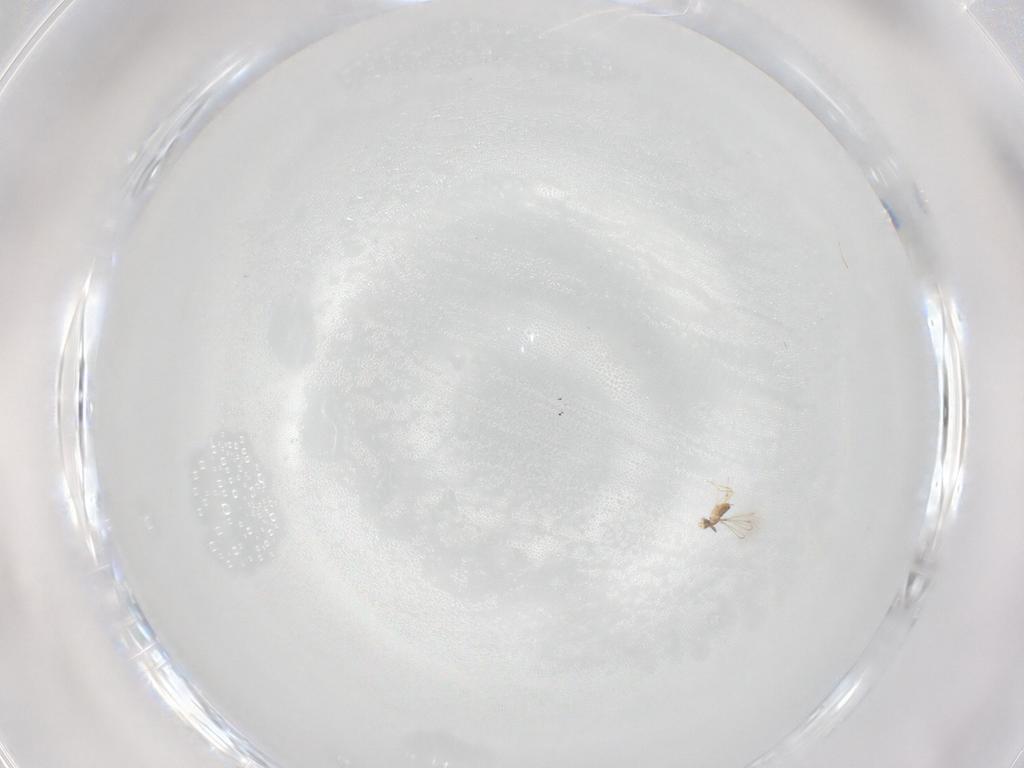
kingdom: Animalia
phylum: Arthropoda
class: Insecta
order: Hymenoptera
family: Mymaridae
